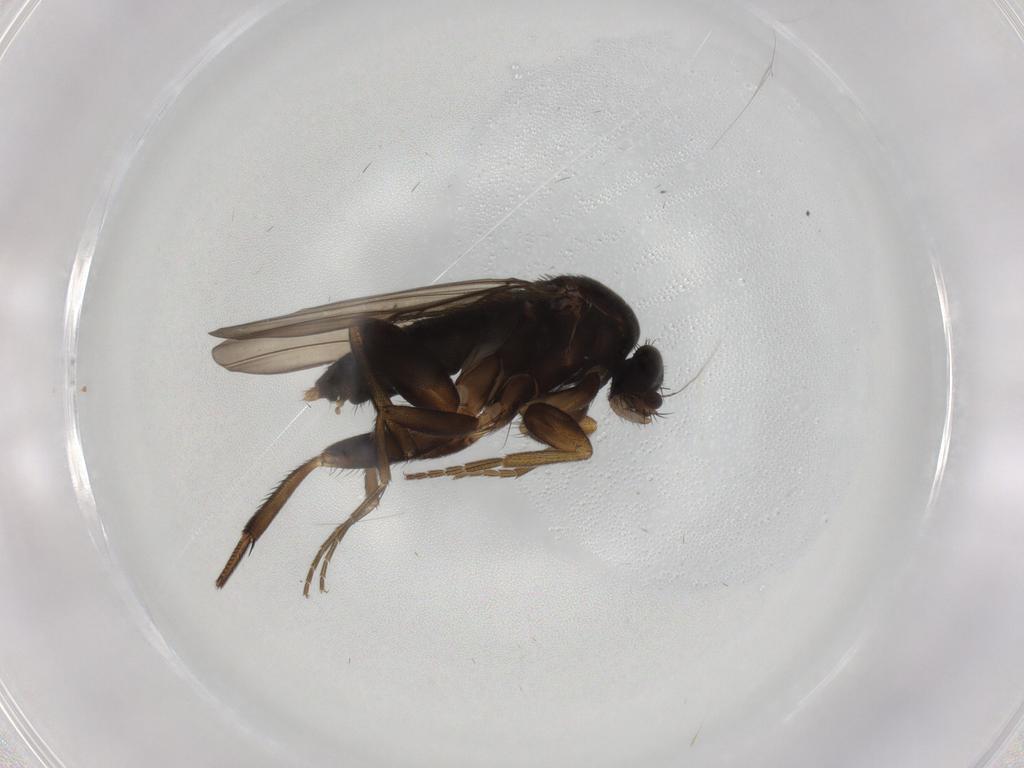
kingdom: Animalia
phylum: Arthropoda
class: Insecta
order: Diptera
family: Phoridae
